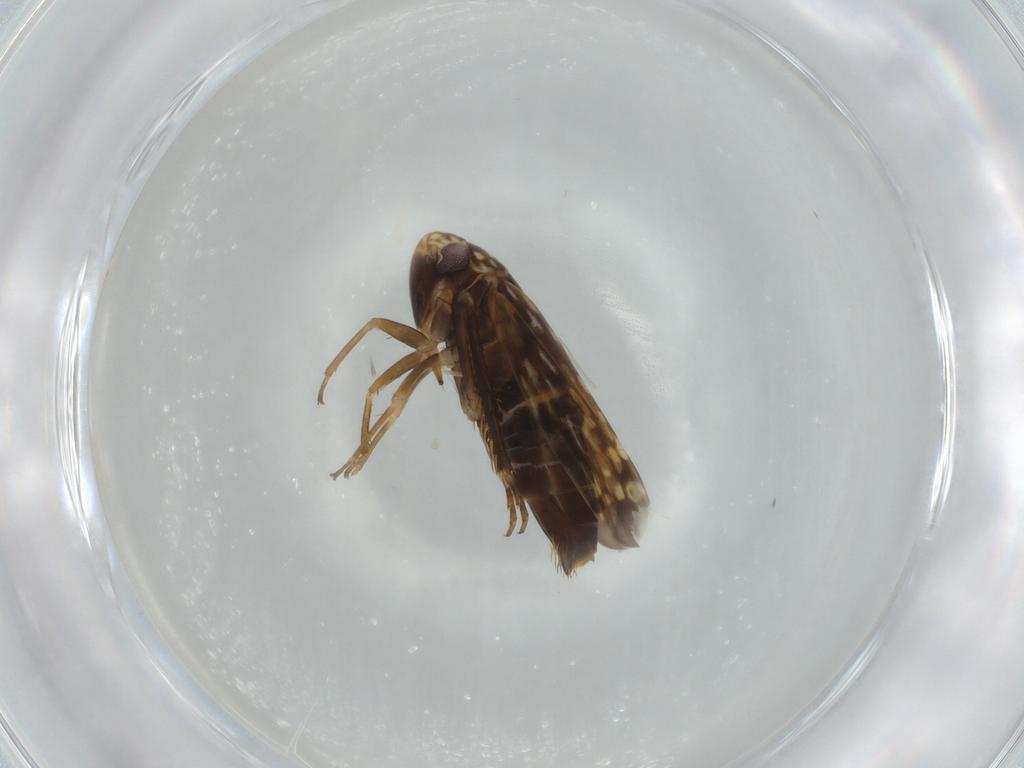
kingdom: Animalia
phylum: Arthropoda
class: Insecta
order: Hemiptera
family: Cicadellidae
